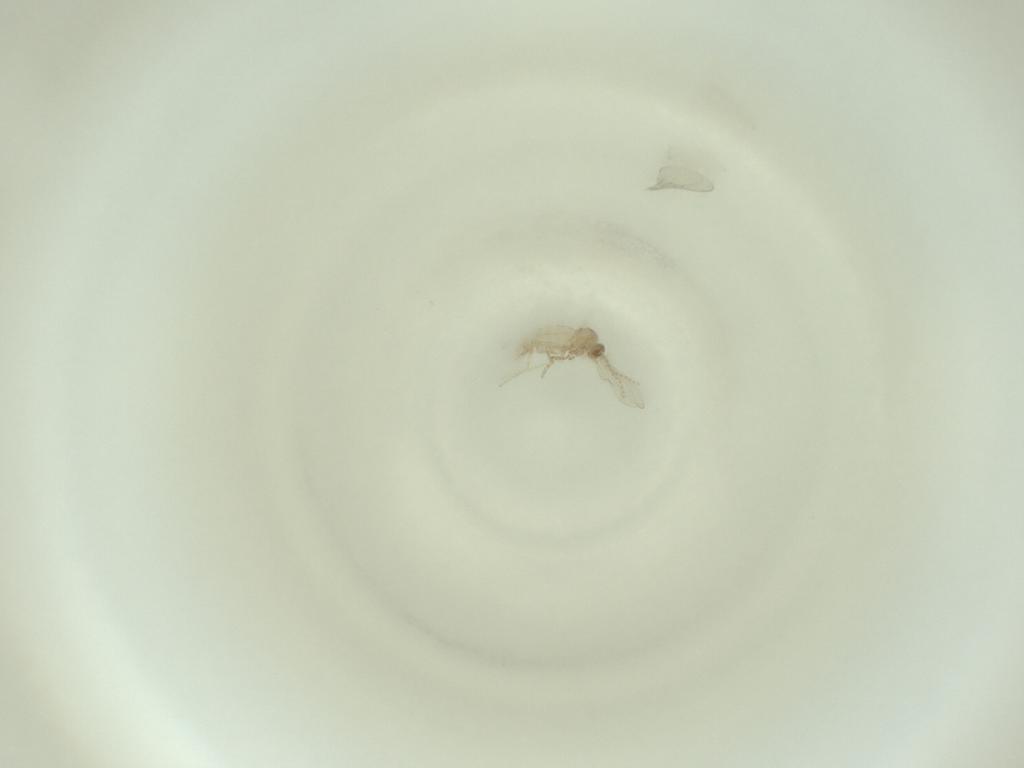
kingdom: Animalia
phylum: Arthropoda
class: Insecta
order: Diptera
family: Cecidomyiidae
